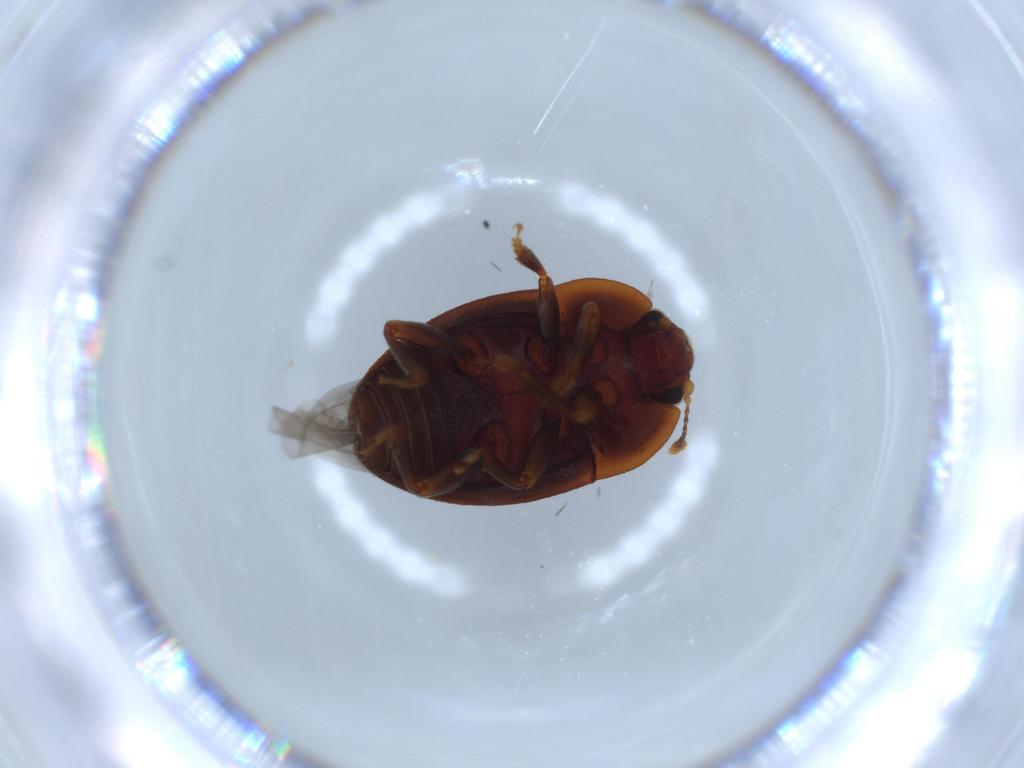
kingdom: Animalia
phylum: Arthropoda
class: Insecta
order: Coleoptera
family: Nitidulidae
